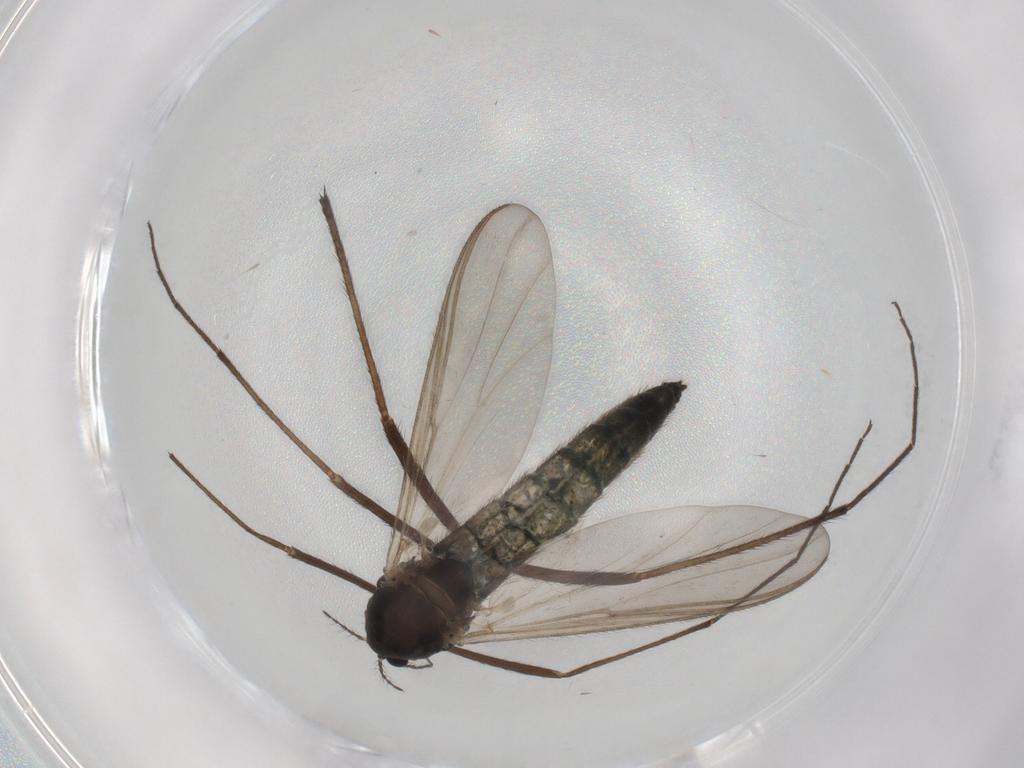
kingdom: Animalia
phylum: Arthropoda
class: Insecta
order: Diptera
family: Chironomidae
